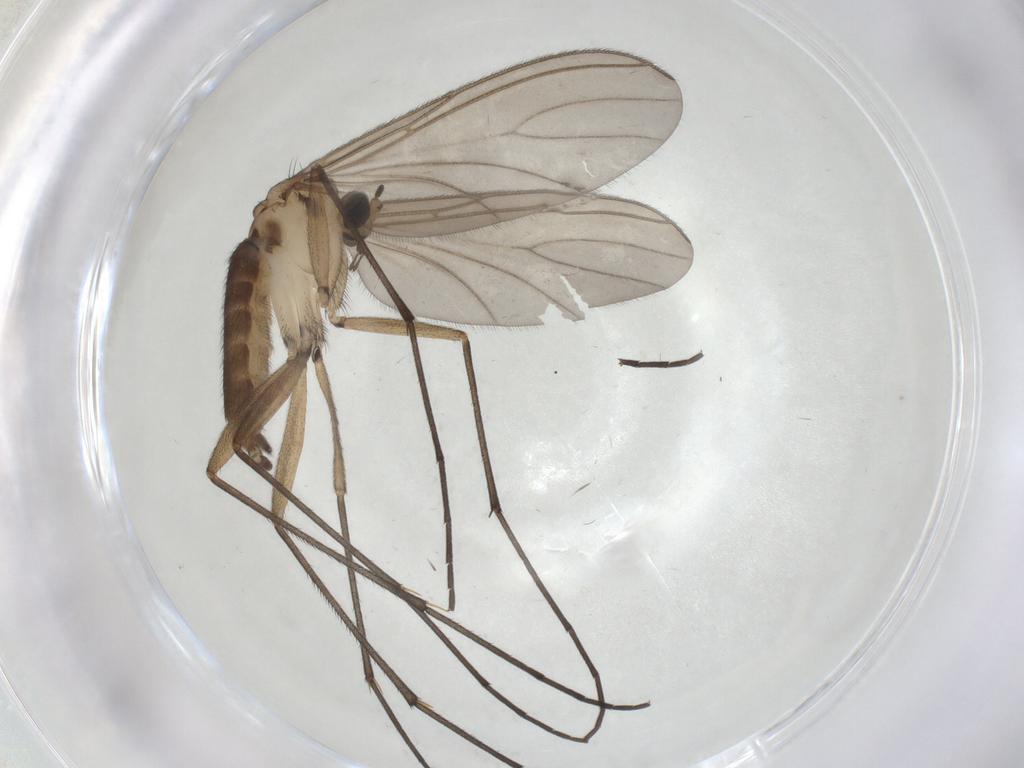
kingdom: Animalia
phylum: Arthropoda
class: Insecta
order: Diptera
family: Sciaridae
